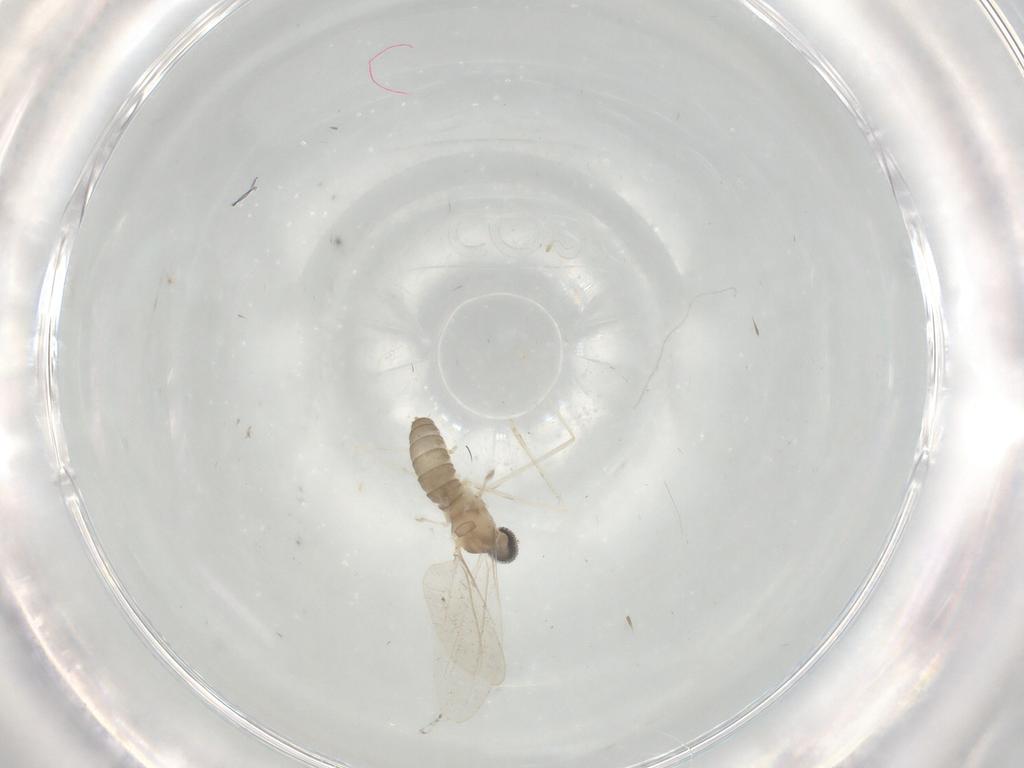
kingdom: Animalia
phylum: Arthropoda
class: Insecta
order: Diptera
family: Cecidomyiidae
